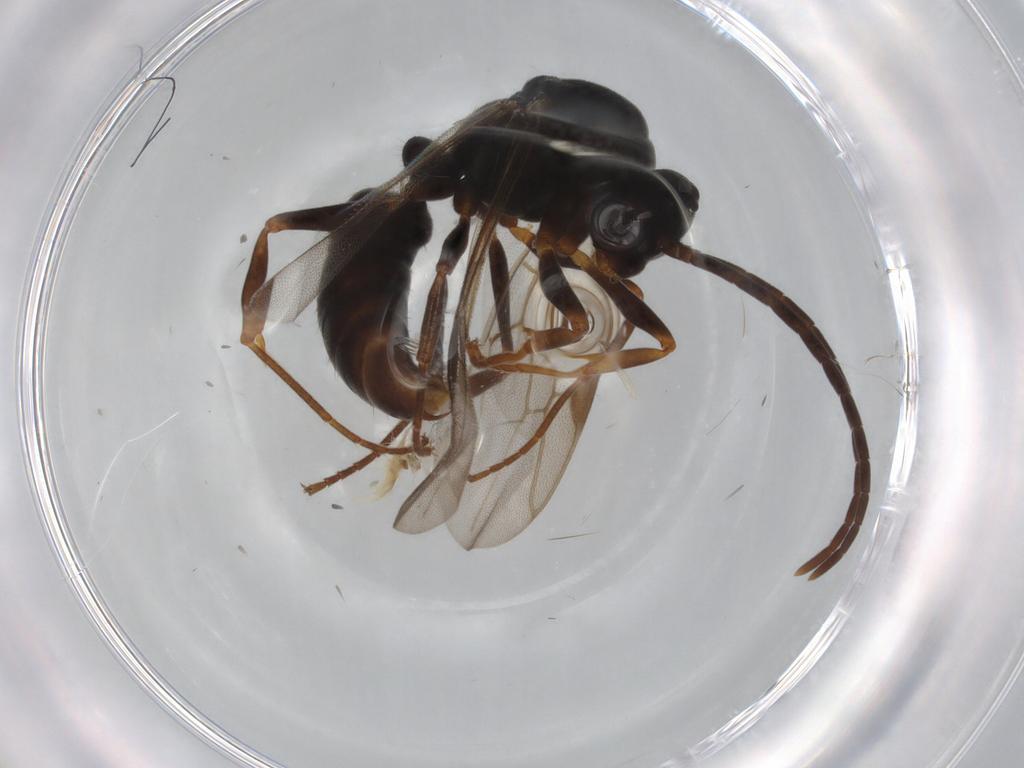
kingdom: Animalia
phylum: Arthropoda
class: Insecta
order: Hymenoptera
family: Formicidae
